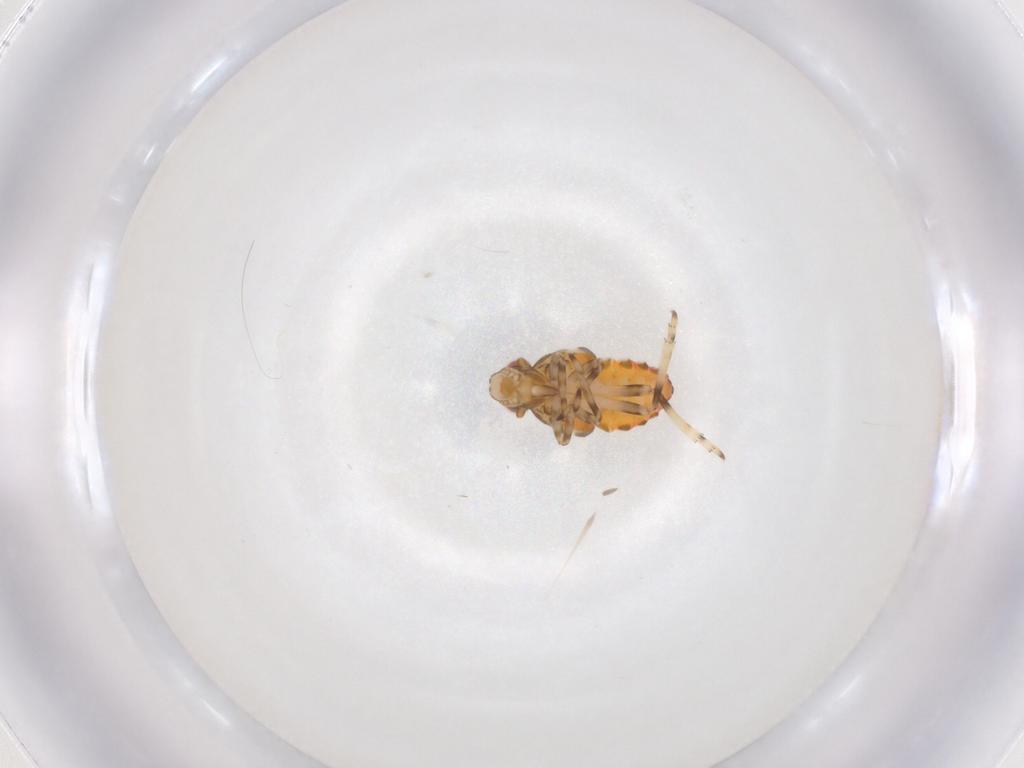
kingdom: Animalia
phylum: Arthropoda
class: Insecta
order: Hemiptera
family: Tropiduchidae
